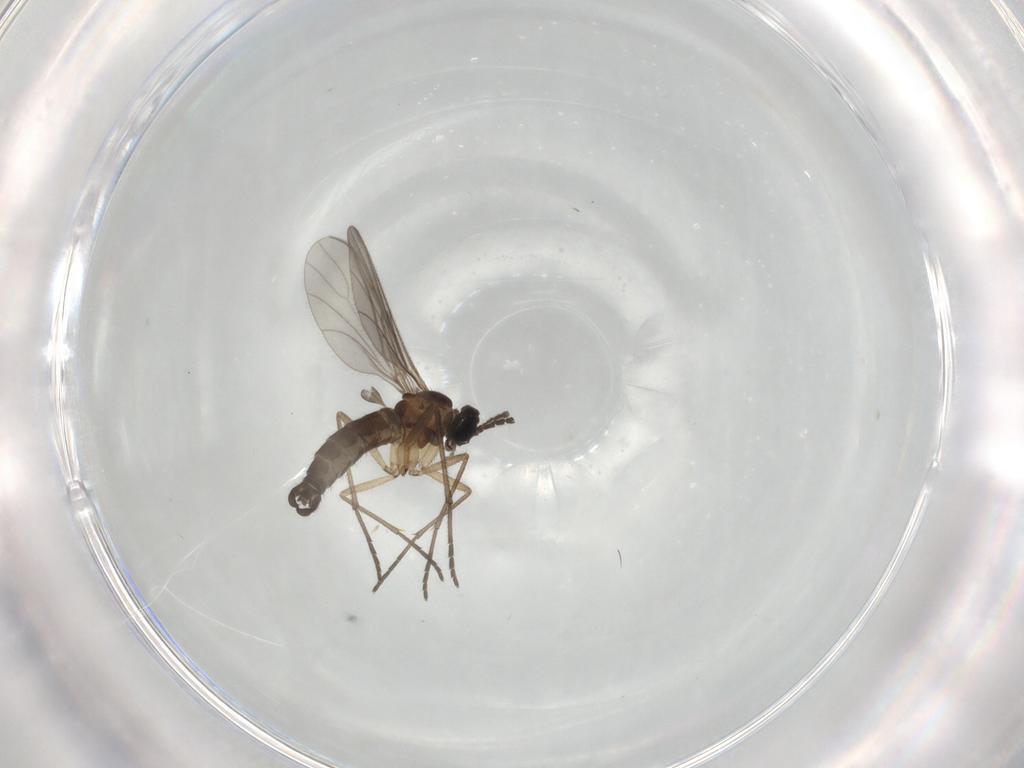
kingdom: Animalia
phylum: Arthropoda
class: Insecta
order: Diptera
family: Sciaridae
